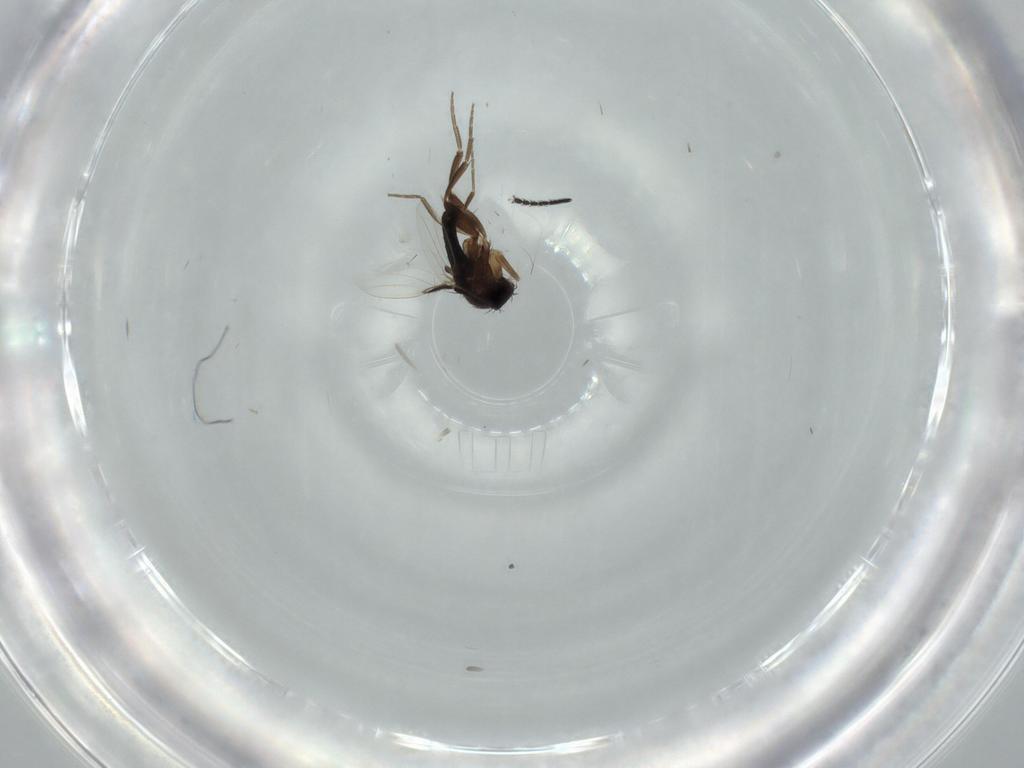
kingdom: Animalia
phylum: Arthropoda
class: Insecta
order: Diptera
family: Phoridae
